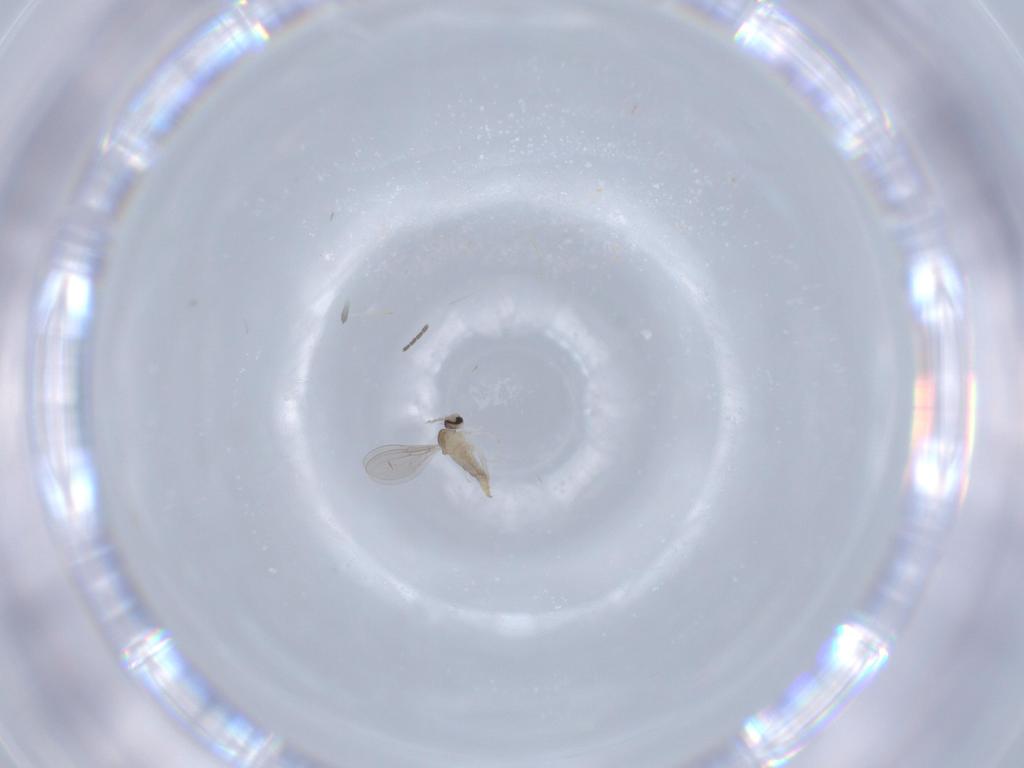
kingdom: Animalia
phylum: Arthropoda
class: Insecta
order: Diptera
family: Cecidomyiidae
